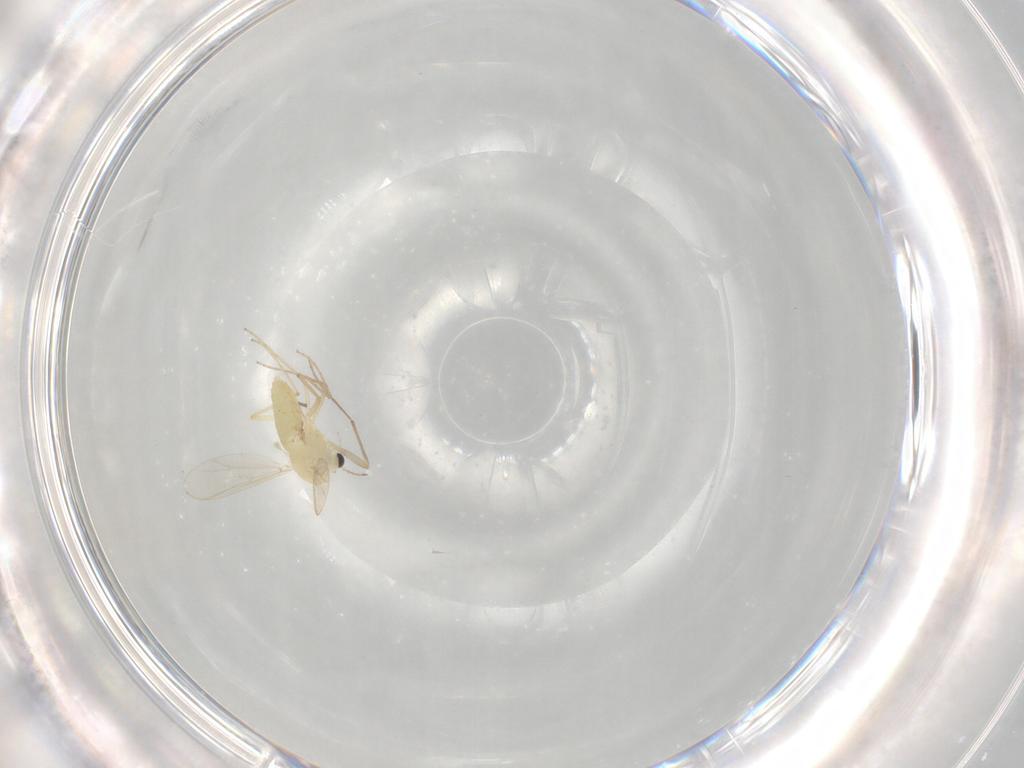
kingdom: Animalia
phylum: Arthropoda
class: Insecta
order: Diptera
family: Chironomidae
